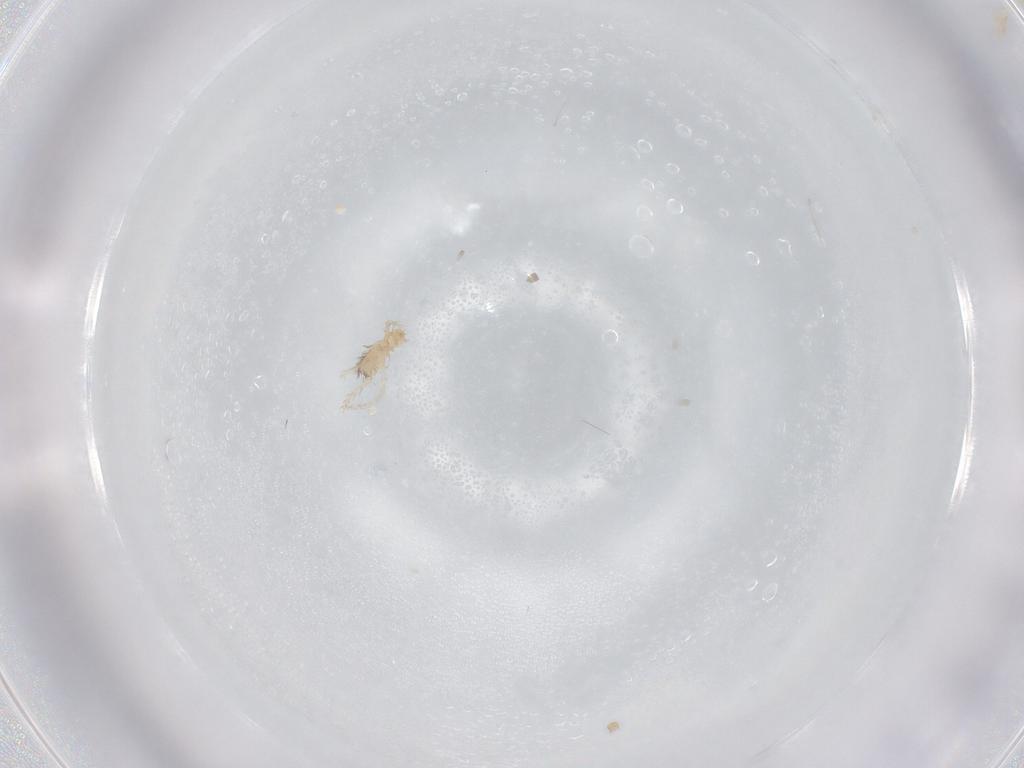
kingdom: Animalia
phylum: Arthropoda
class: Arachnida
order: Trombidiformes
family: Erythraeidae
